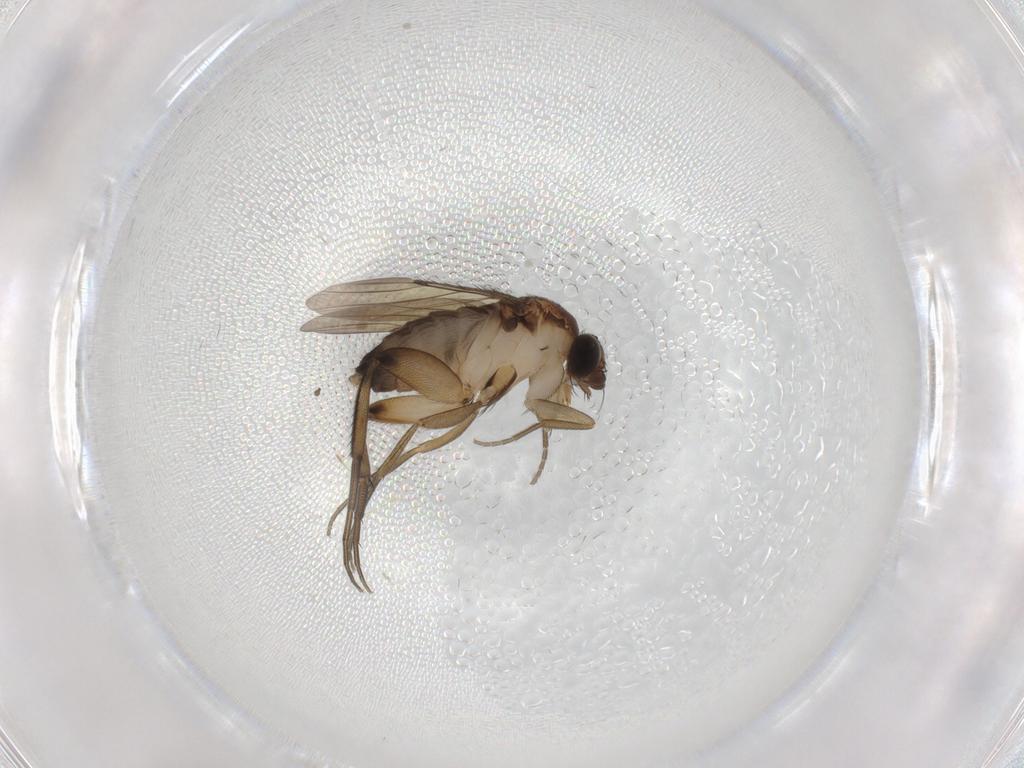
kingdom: Animalia
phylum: Arthropoda
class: Insecta
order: Diptera
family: Phoridae
